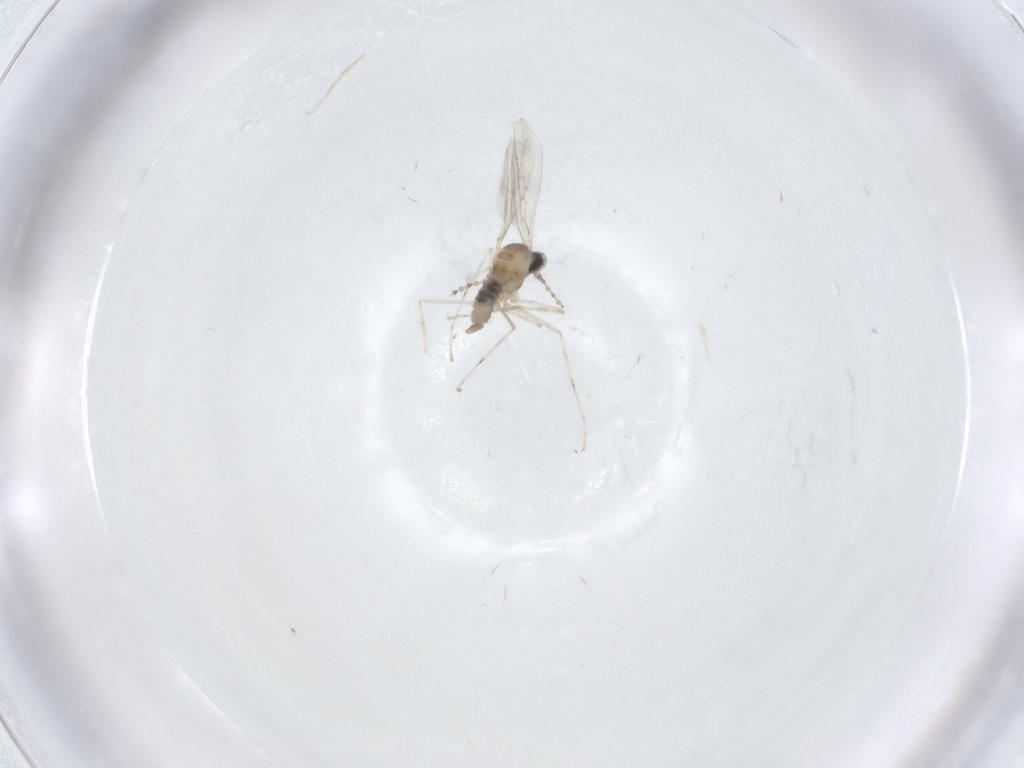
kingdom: Animalia
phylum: Arthropoda
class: Insecta
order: Diptera
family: Cecidomyiidae
